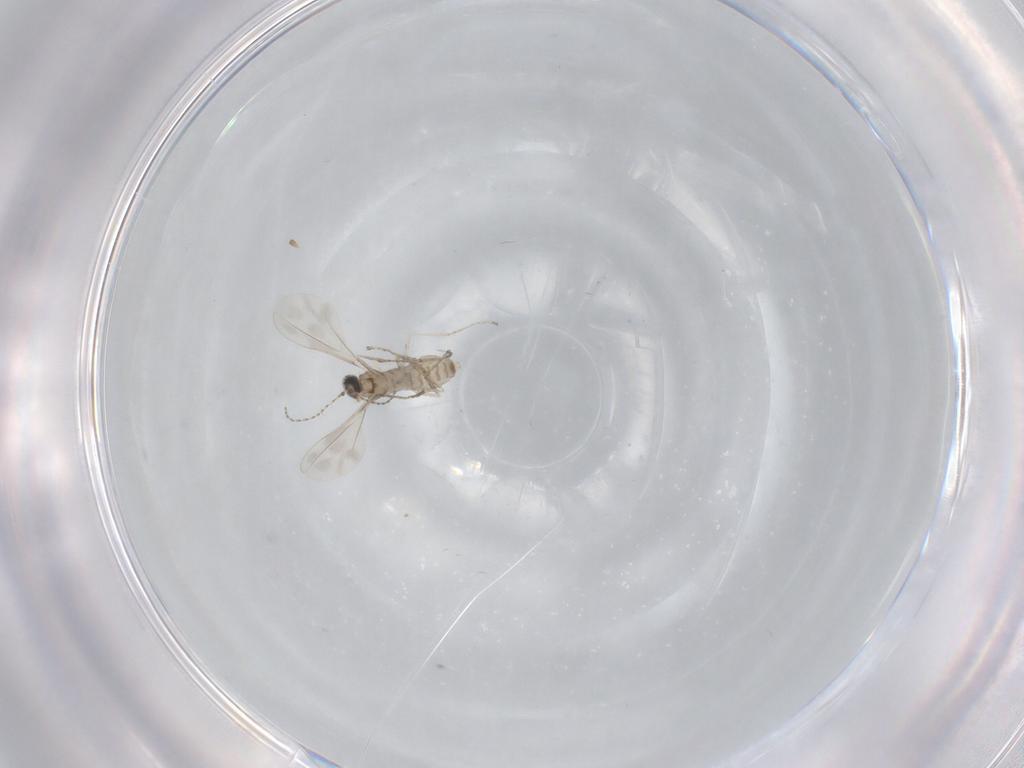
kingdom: Animalia
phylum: Arthropoda
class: Insecta
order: Diptera
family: Cecidomyiidae
